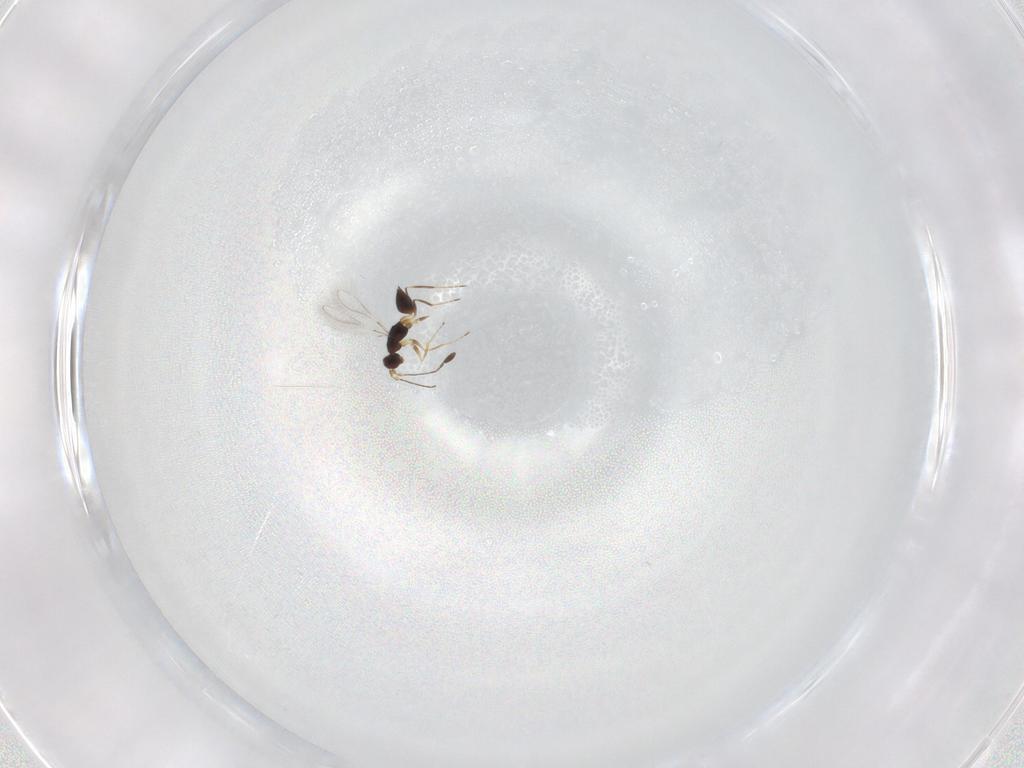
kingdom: Animalia
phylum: Arthropoda
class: Insecta
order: Hymenoptera
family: Mymaridae
